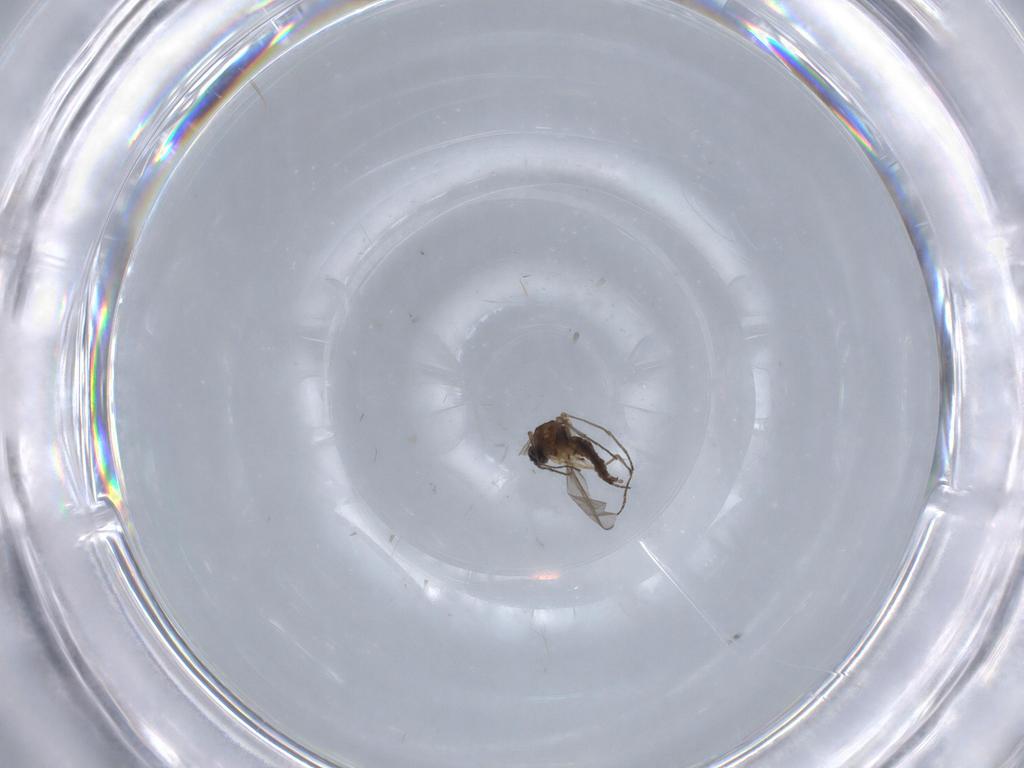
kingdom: Animalia
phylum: Arthropoda
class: Insecta
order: Diptera
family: Sciaridae
